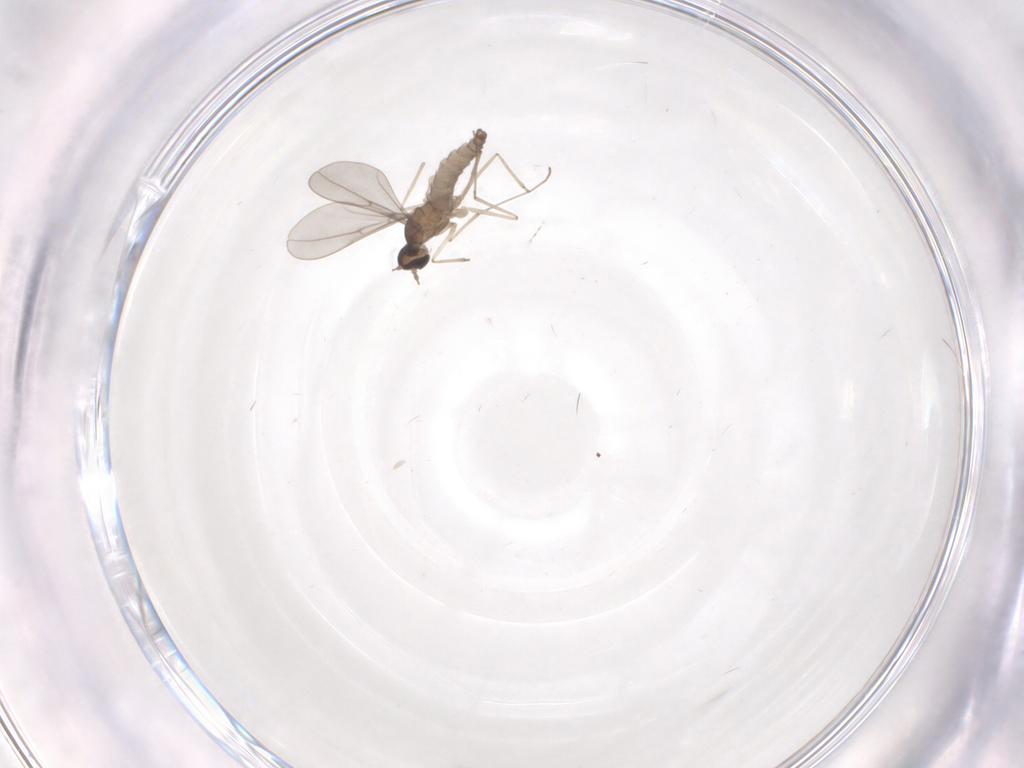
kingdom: Animalia
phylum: Arthropoda
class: Insecta
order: Diptera
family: Cecidomyiidae
